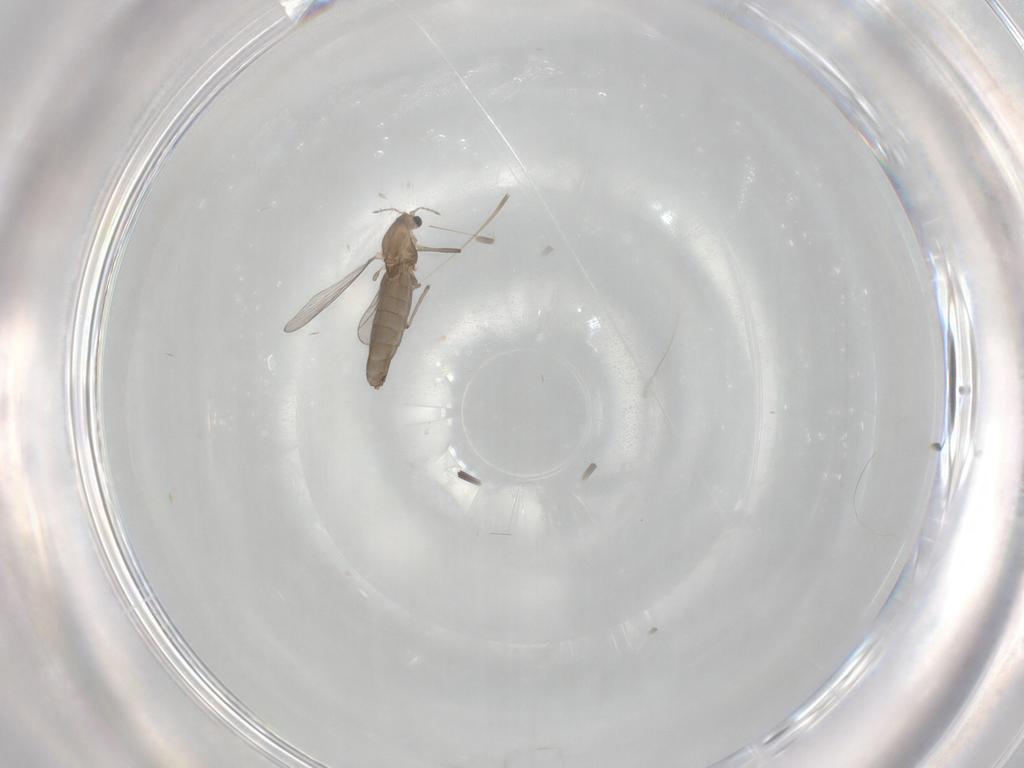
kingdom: Animalia
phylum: Arthropoda
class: Insecta
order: Diptera
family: Chironomidae
